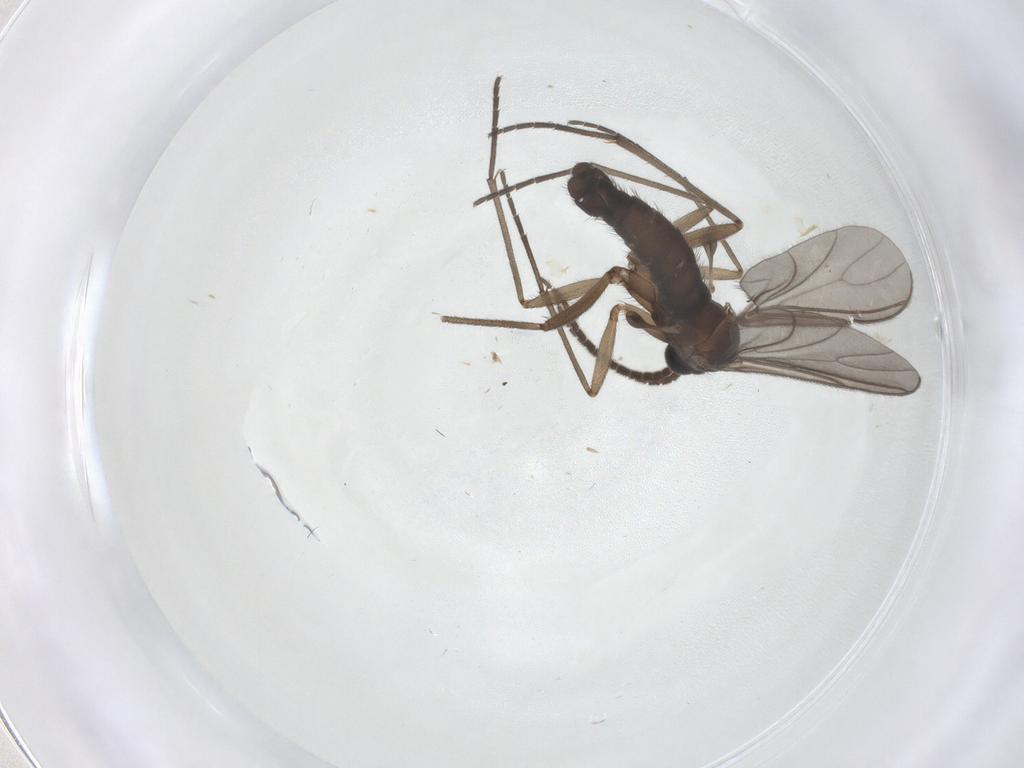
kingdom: Animalia
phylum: Arthropoda
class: Insecta
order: Diptera
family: Sciaridae
